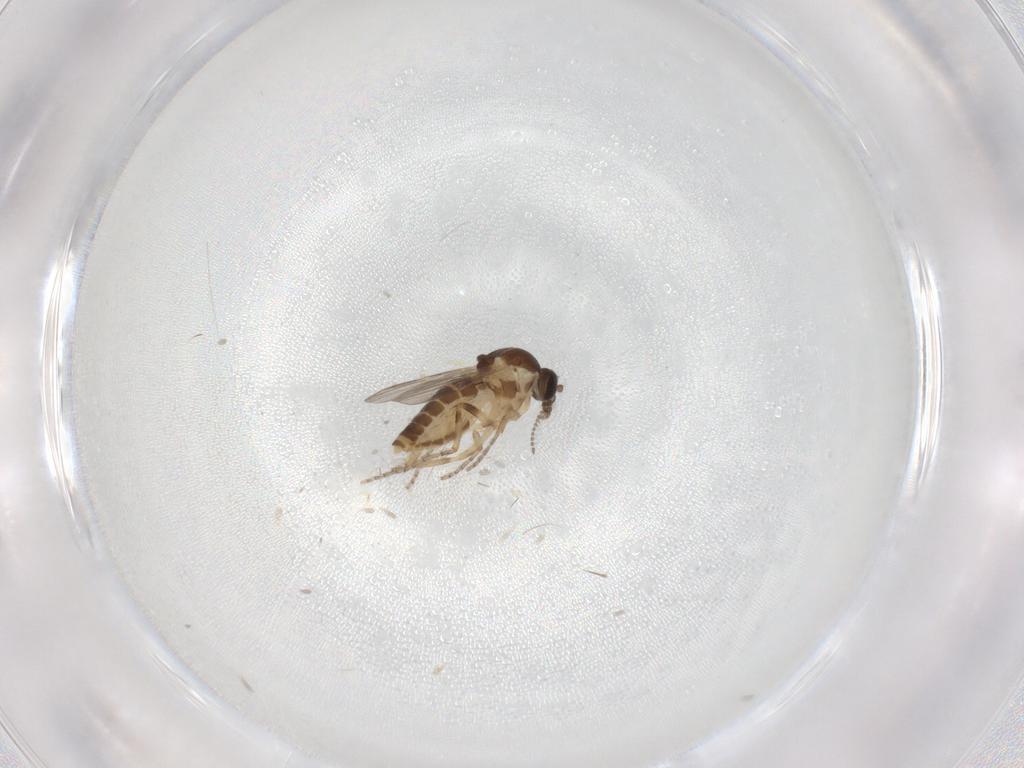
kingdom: Animalia
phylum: Arthropoda
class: Insecta
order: Diptera
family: Ceratopogonidae
